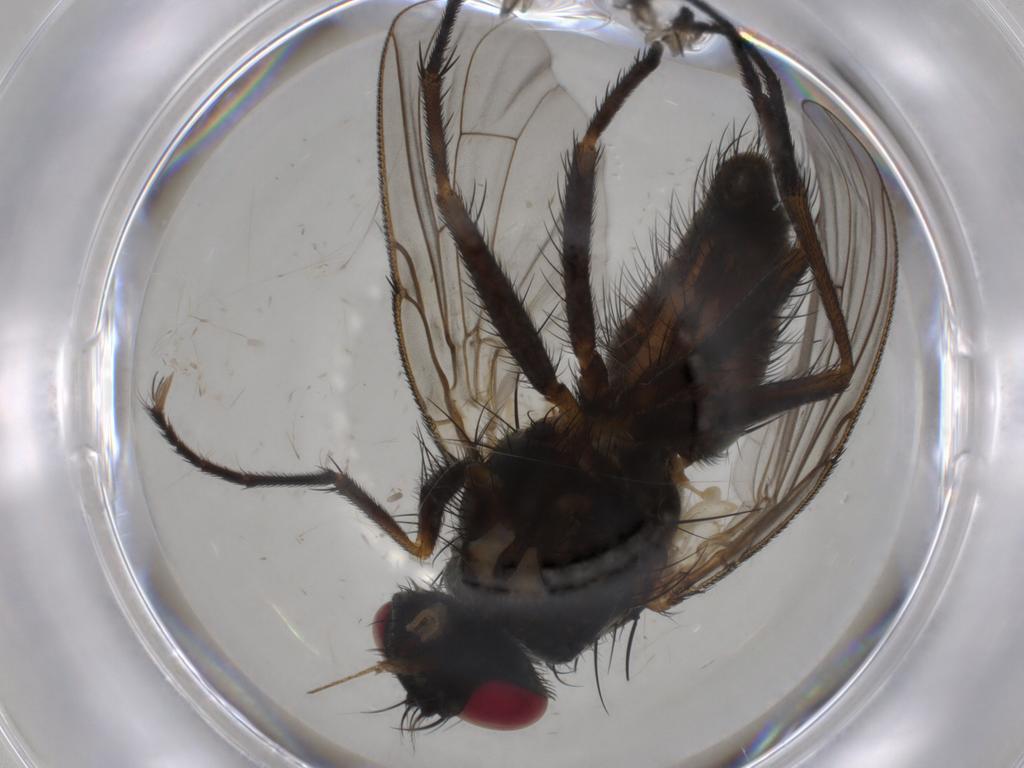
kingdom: Animalia
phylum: Arthropoda
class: Insecta
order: Diptera
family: Muscidae
